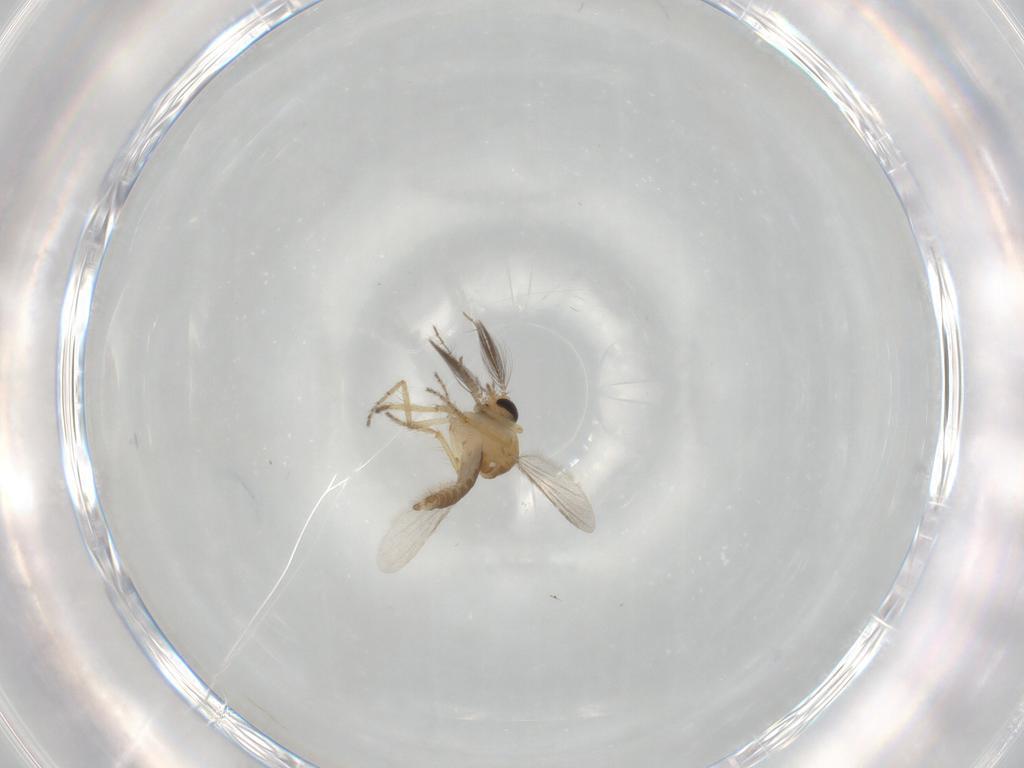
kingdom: Animalia
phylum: Arthropoda
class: Insecta
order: Diptera
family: Ceratopogonidae
